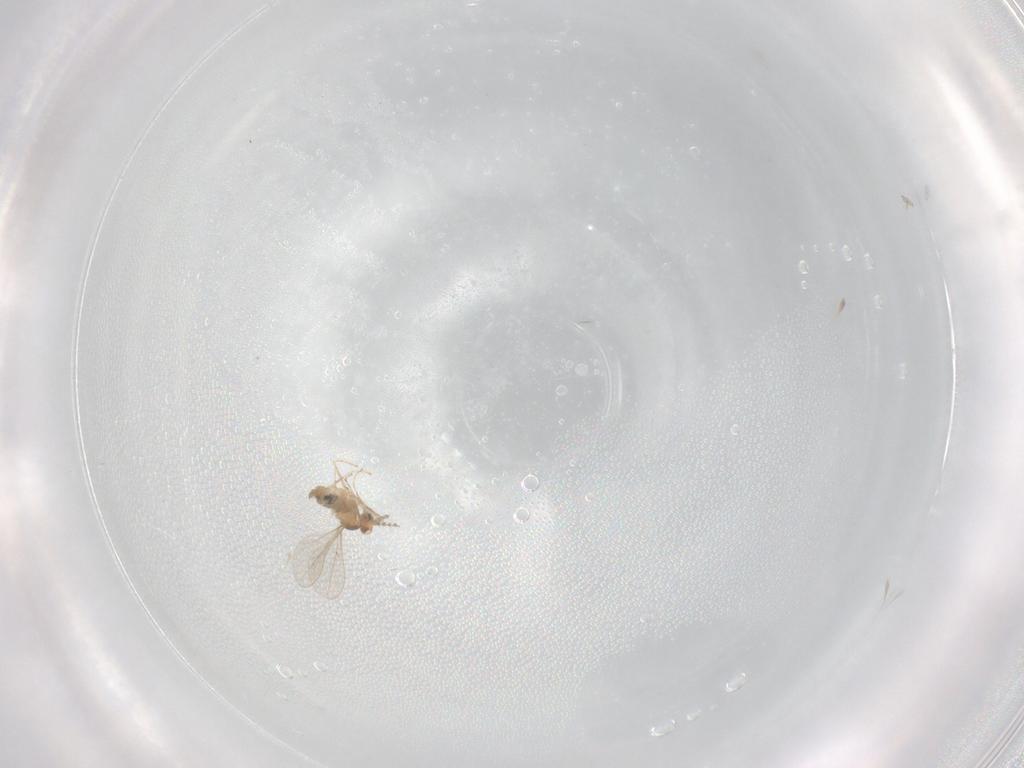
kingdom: Animalia
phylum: Arthropoda
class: Insecta
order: Diptera
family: Cecidomyiidae
